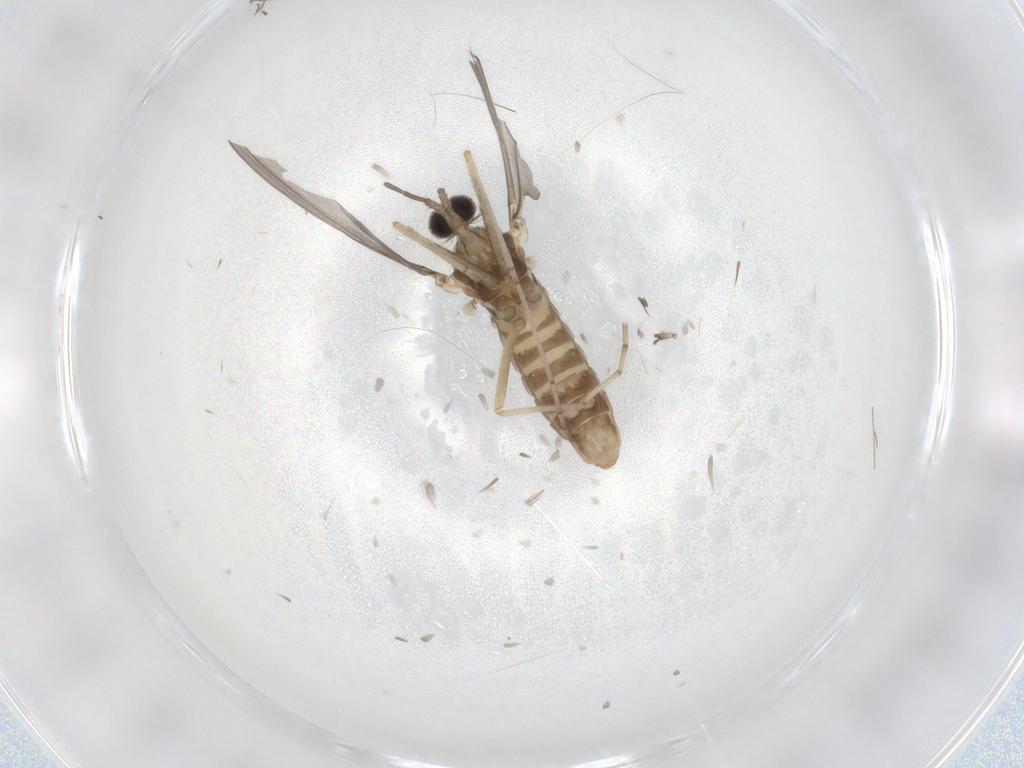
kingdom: Animalia
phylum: Arthropoda
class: Insecta
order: Diptera
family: Cecidomyiidae
